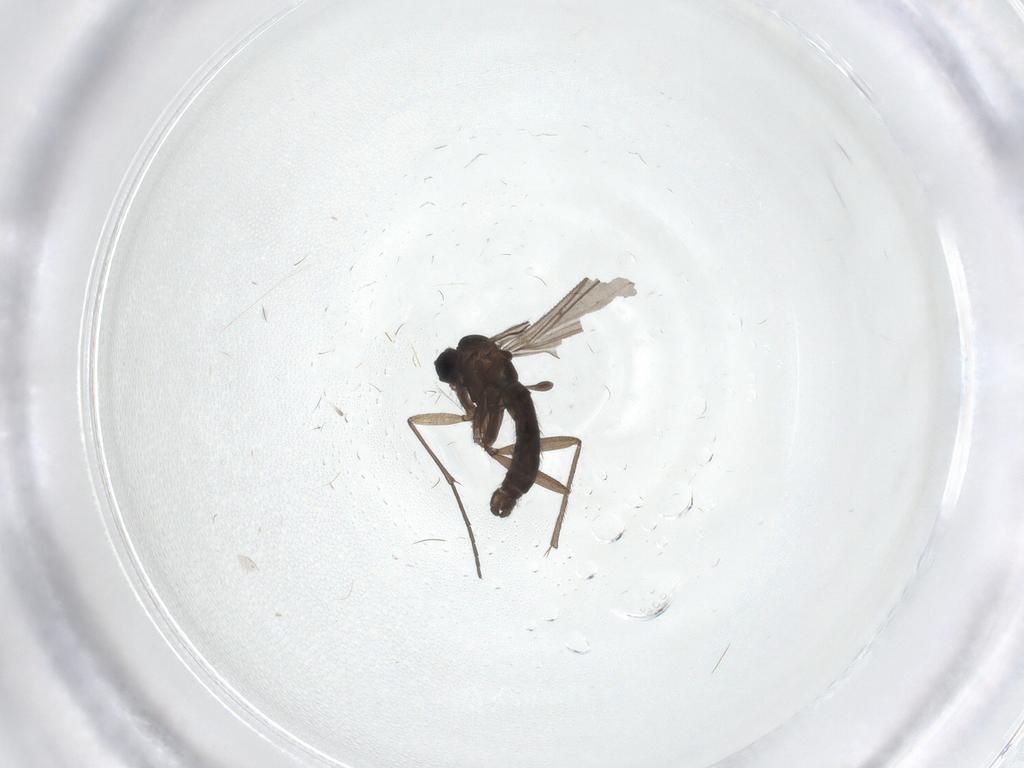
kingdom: Animalia
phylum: Arthropoda
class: Insecta
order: Diptera
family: Sciaridae
